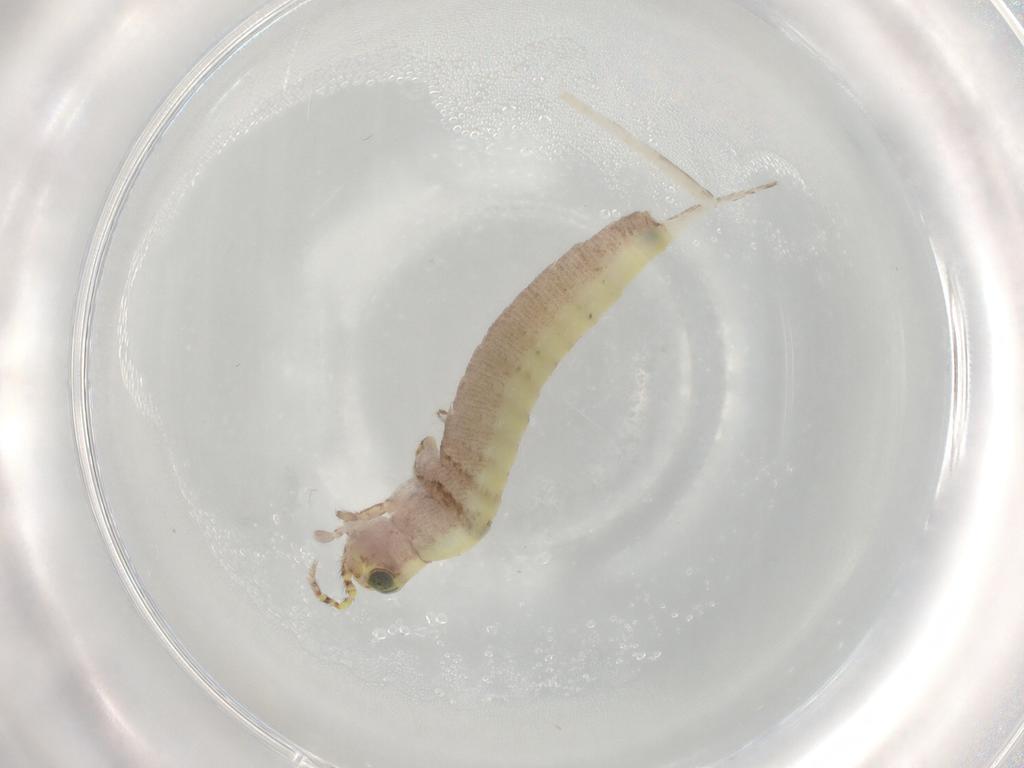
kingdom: Animalia
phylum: Arthropoda
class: Insecta
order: Archaeognatha
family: Machilidae
